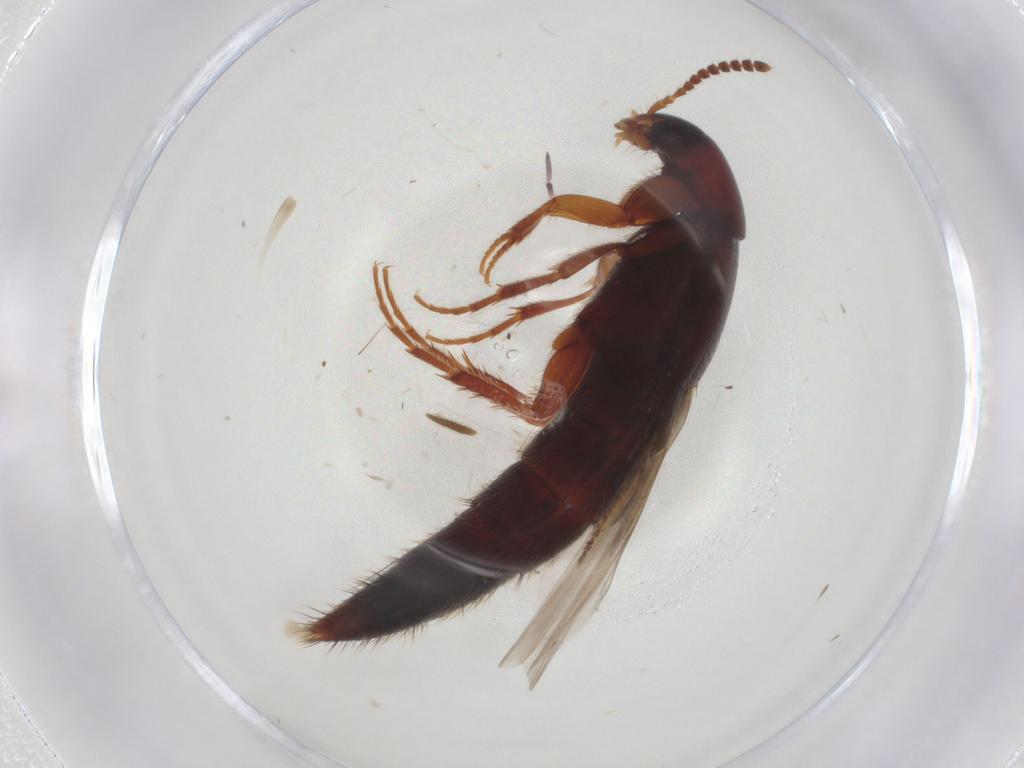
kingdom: Animalia
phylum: Arthropoda
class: Insecta
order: Coleoptera
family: Staphylinidae
